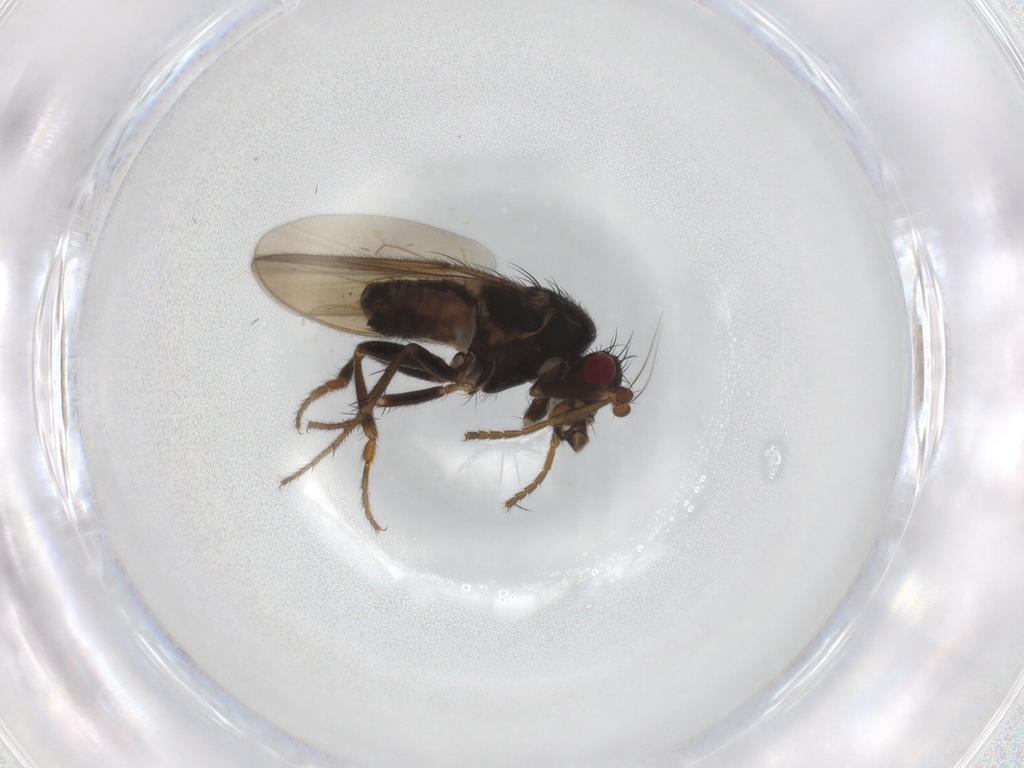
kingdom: Animalia
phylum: Arthropoda
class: Insecta
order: Diptera
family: Sphaeroceridae
